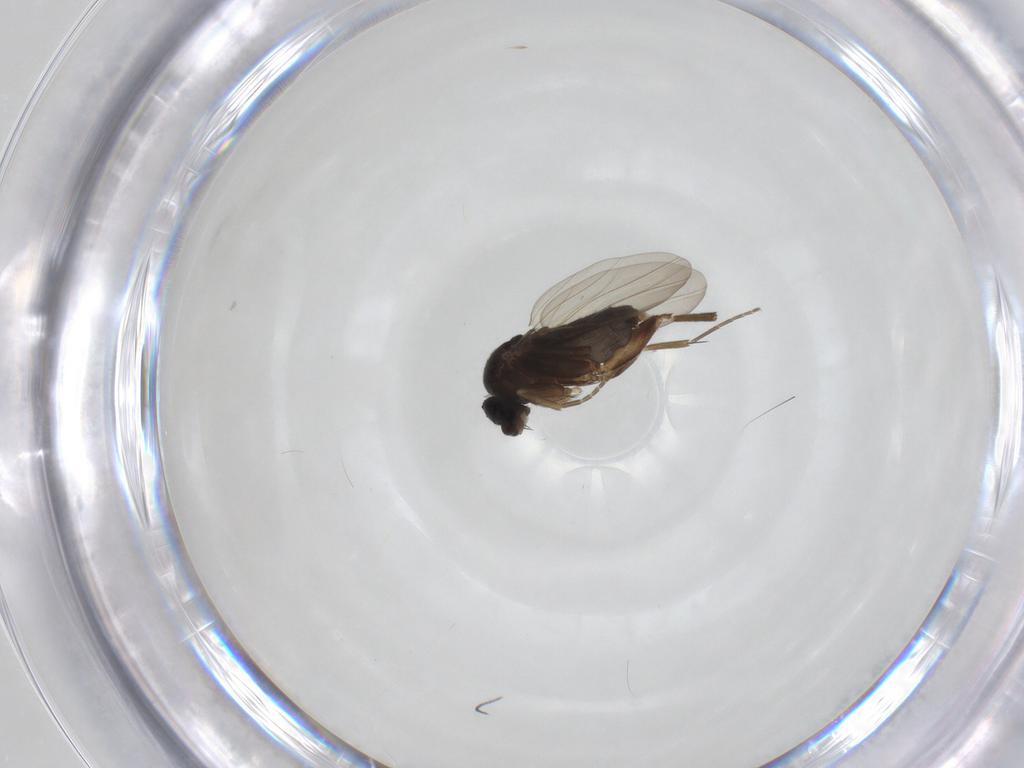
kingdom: Animalia
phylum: Arthropoda
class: Insecta
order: Diptera
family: Phoridae
